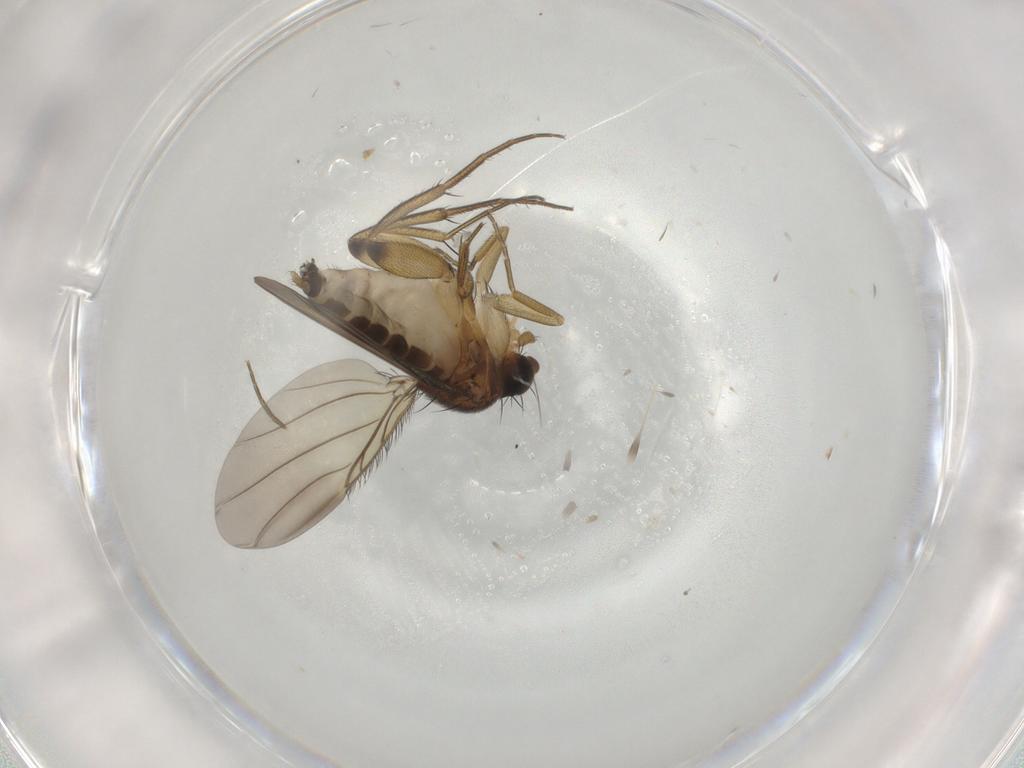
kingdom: Animalia
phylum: Arthropoda
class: Insecta
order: Diptera
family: Phoridae
